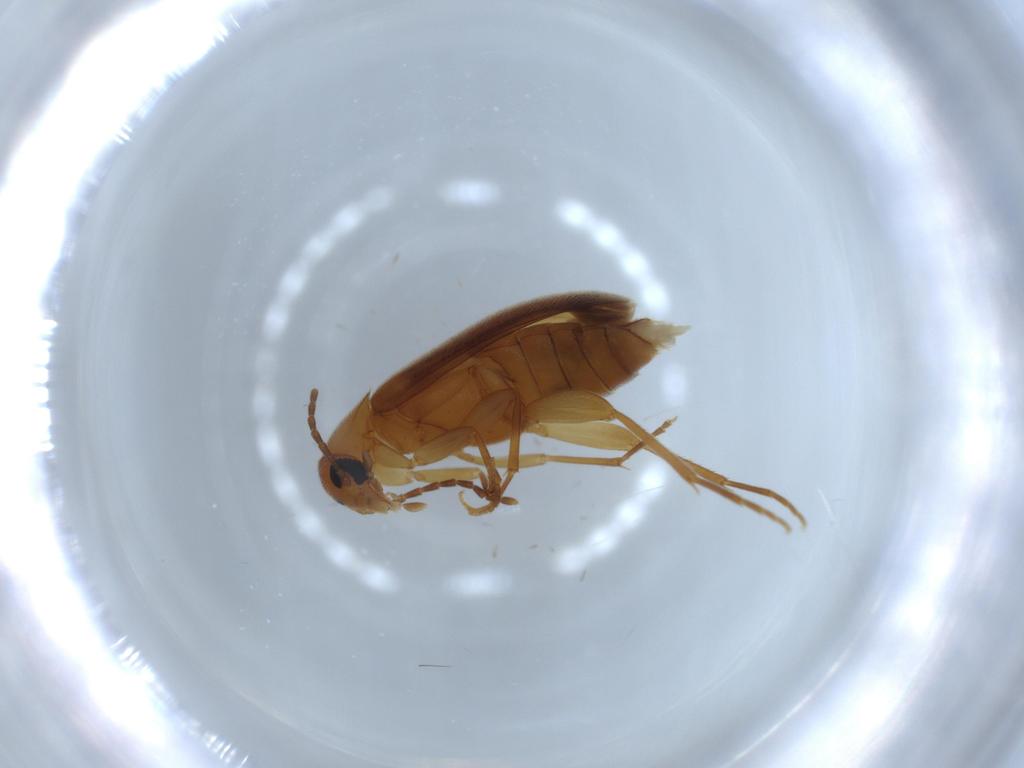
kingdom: Animalia
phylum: Arthropoda
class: Insecta
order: Coleoptera
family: Scraptiidae
